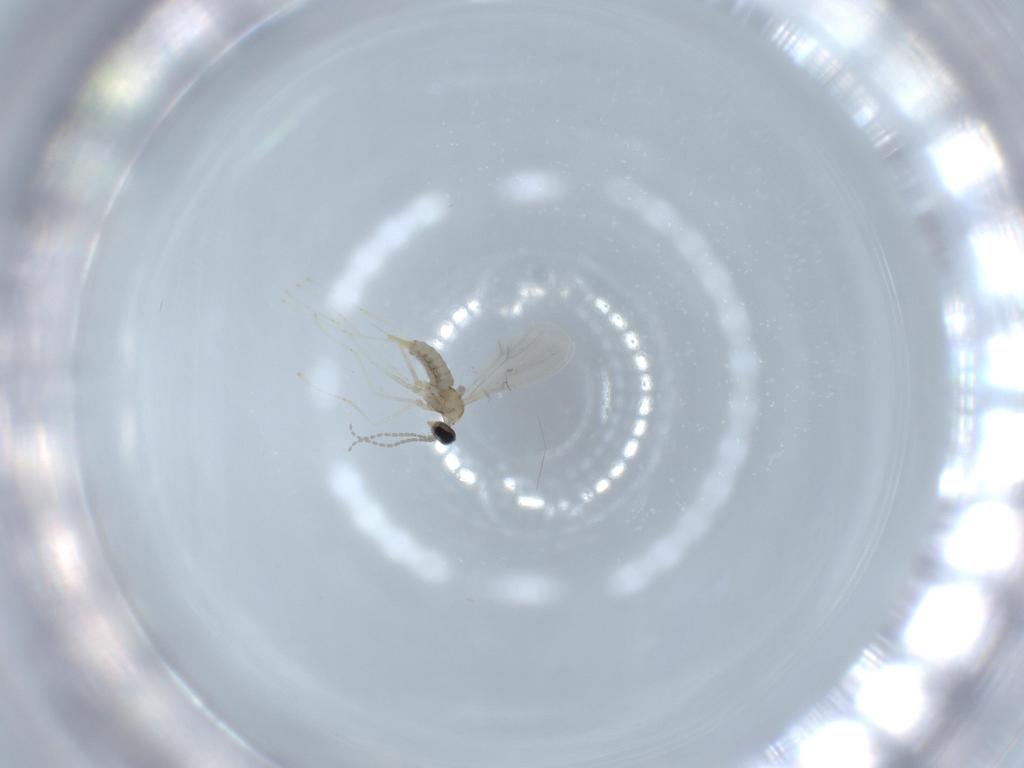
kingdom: Animalia
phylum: Arthropoda
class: Insecta
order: Diptera
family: Cecidomyiidae
